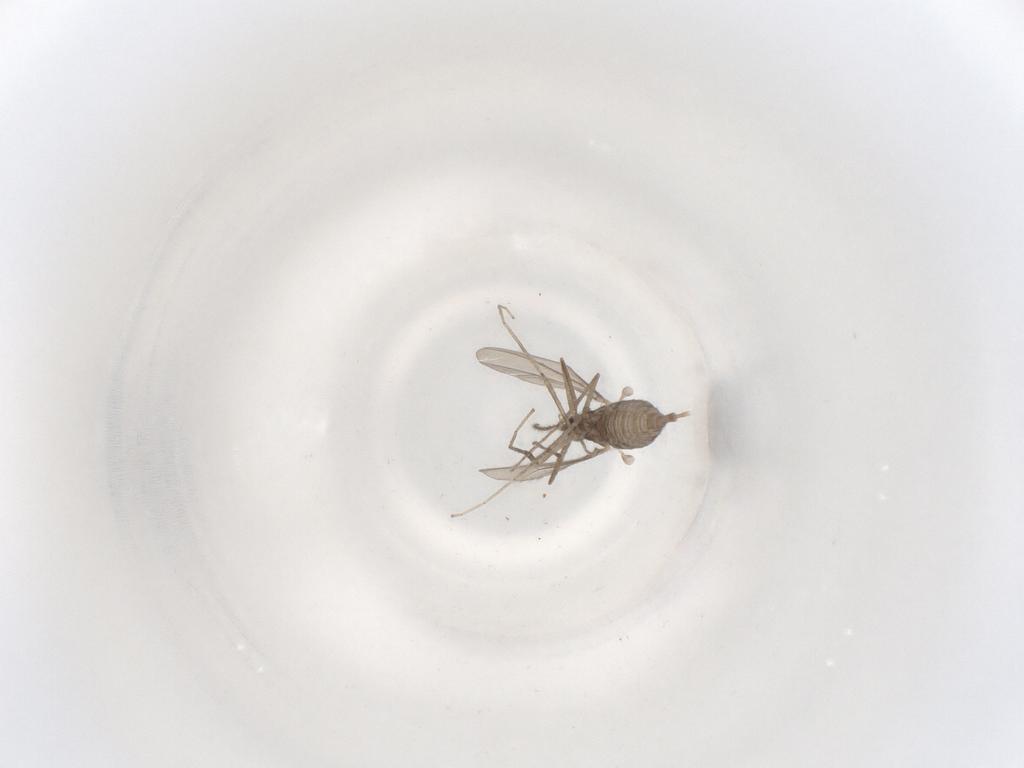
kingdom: Animalia
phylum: Arthropoda
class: Insecta
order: Diptera
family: Cecidomyiidae
